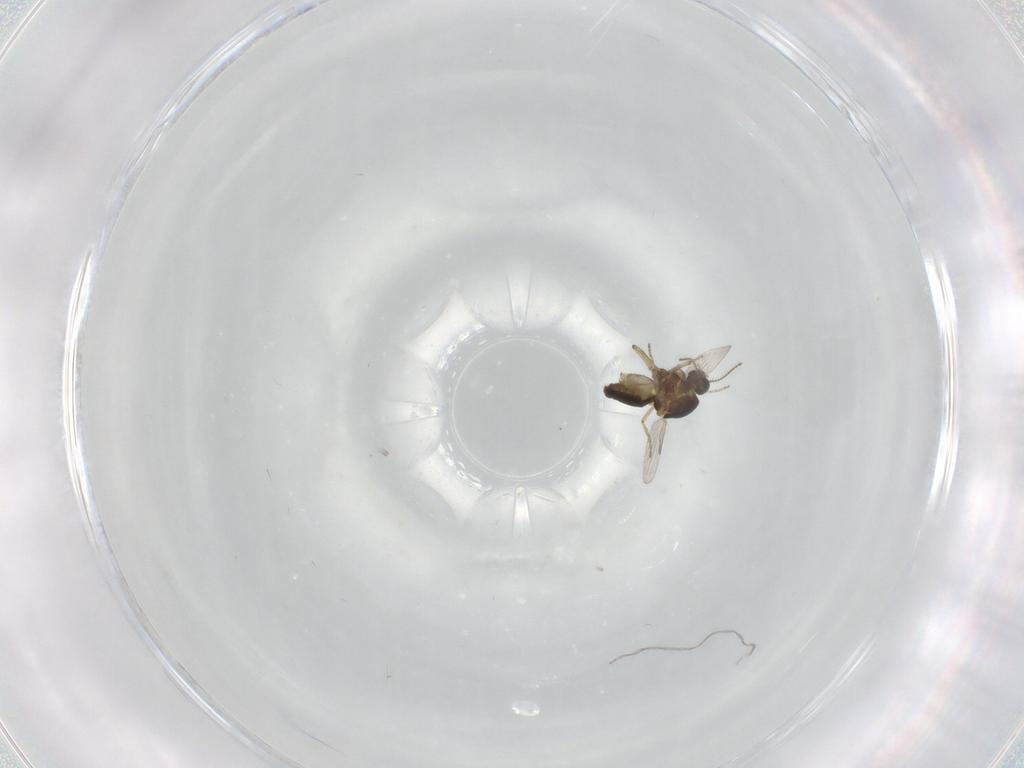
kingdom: Animalia
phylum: Arthropoda
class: Insecta
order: Diptera
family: Ceratopogonidae
